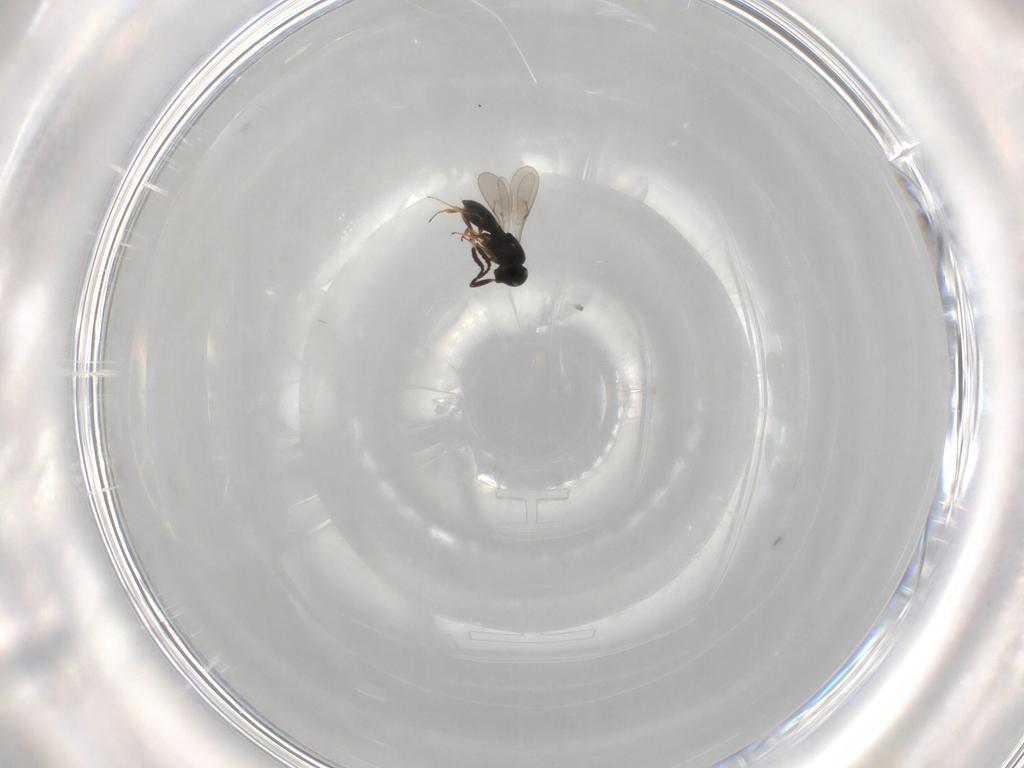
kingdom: Animalia
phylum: Arthropoda
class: Insecta
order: Hymenoptera
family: Scelionidae
